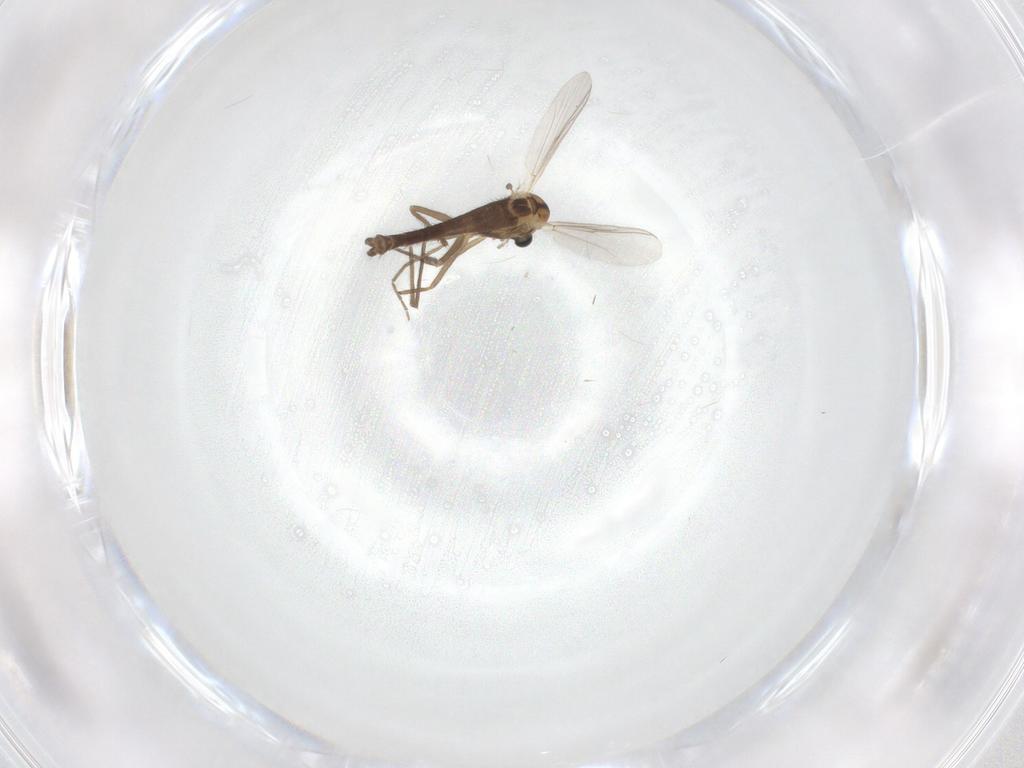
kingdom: Animalia
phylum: Arthropoda
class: Insecta
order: Diptera
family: Chironomidae
